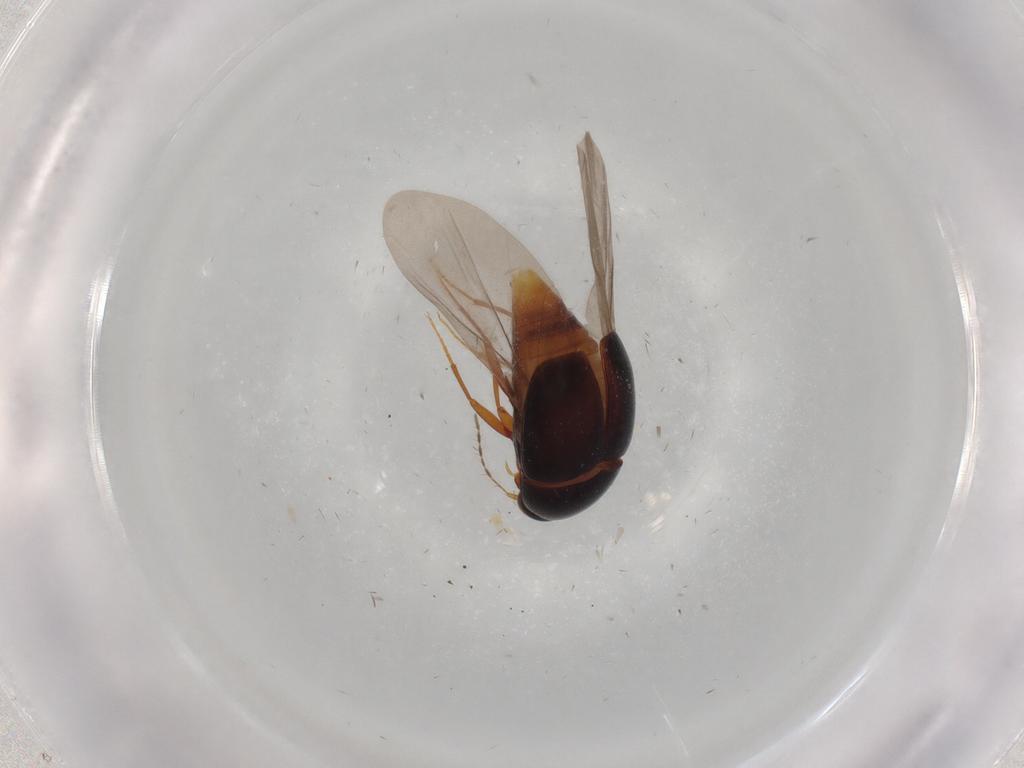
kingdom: Animalia
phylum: Arthropoda
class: Insecta
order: Coleoptera
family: Staphylinidae
